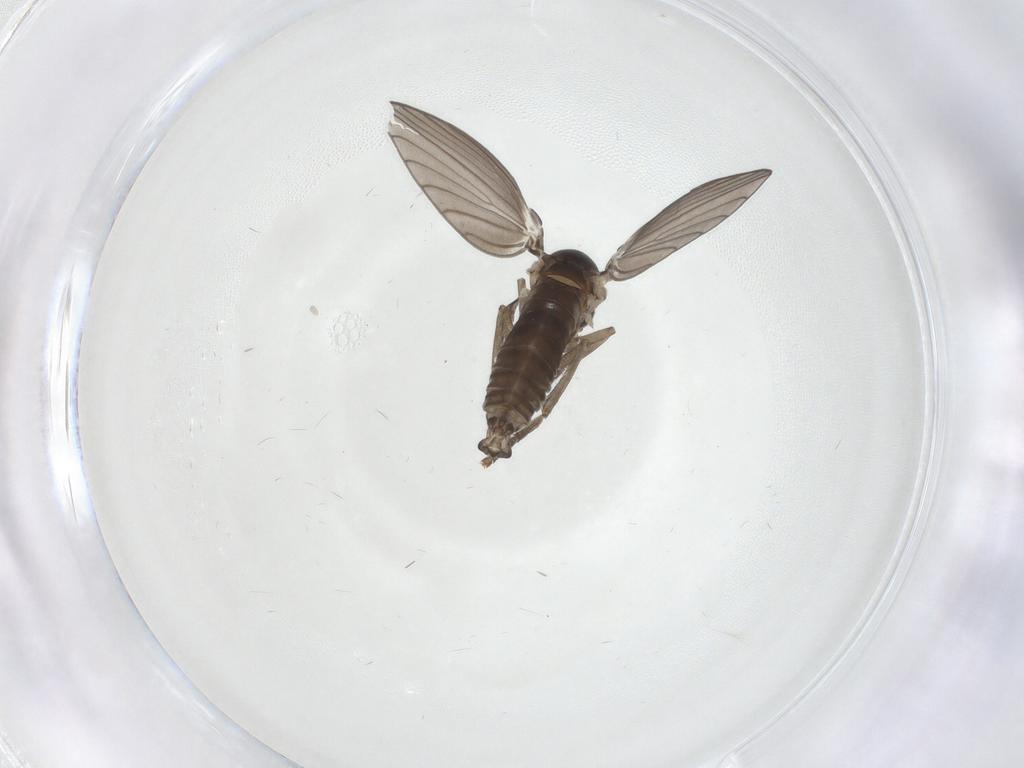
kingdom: Animalia
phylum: Arthropoda
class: Insecta
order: Diptera
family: Psychodidae
